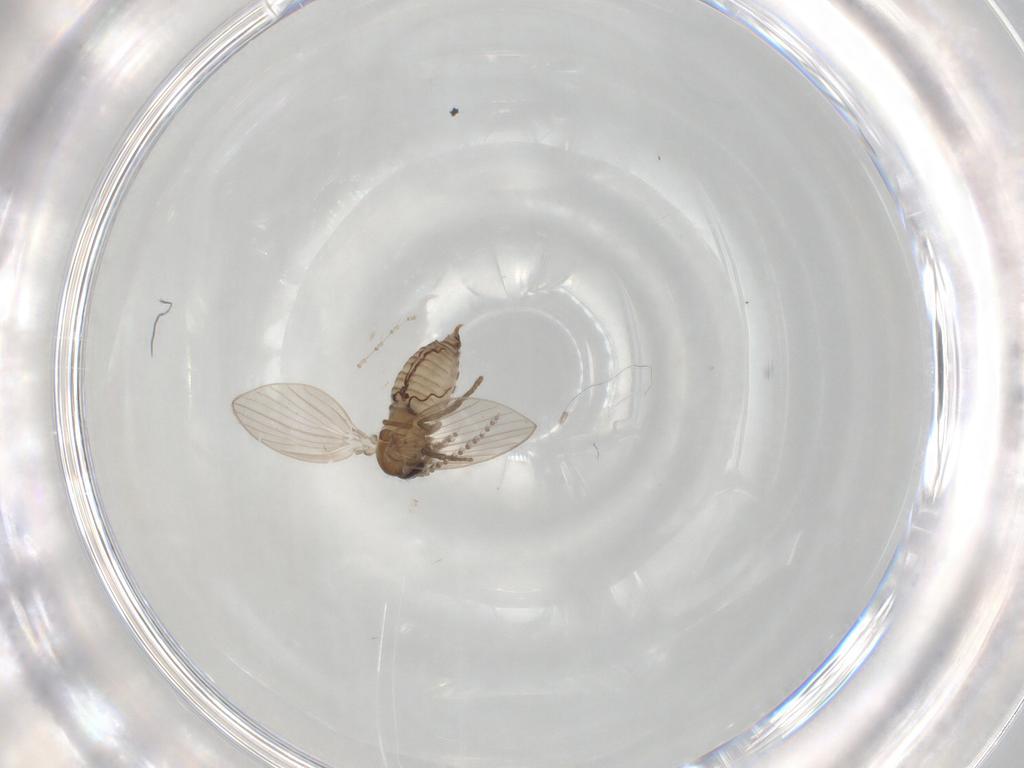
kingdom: Animalia
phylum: Arthropoda
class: Insecta
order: Diptera
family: Psychodidae
